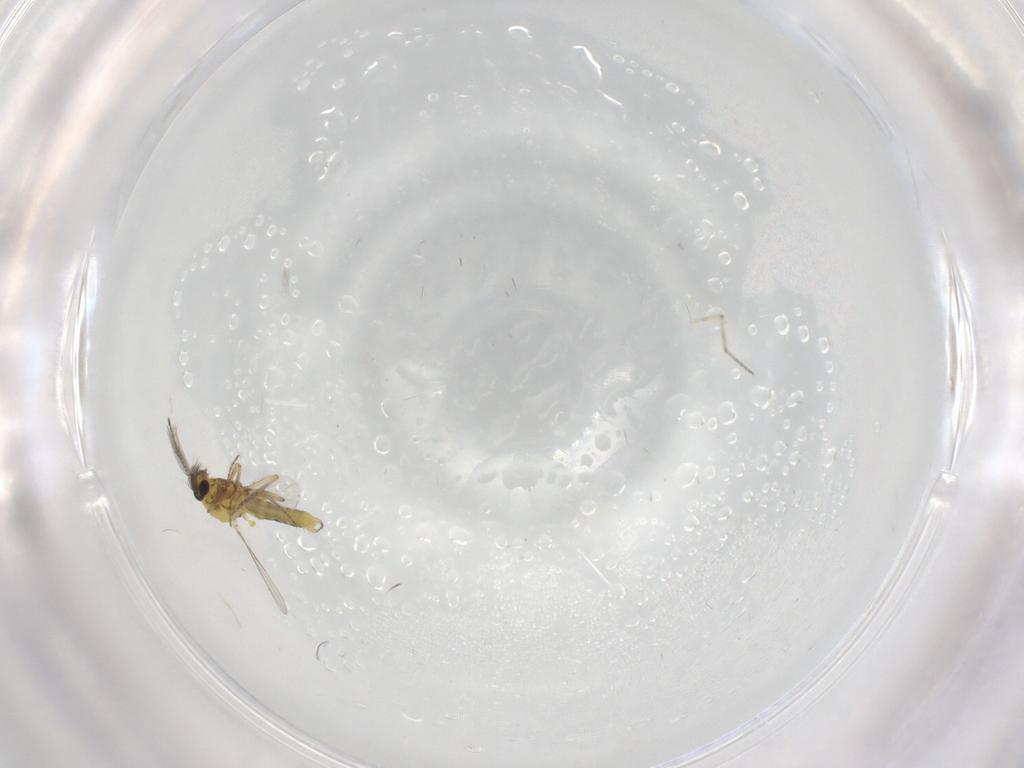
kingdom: Animalia
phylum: Arthropoda
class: Insecta
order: Diptera
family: Ceratopogonidae
